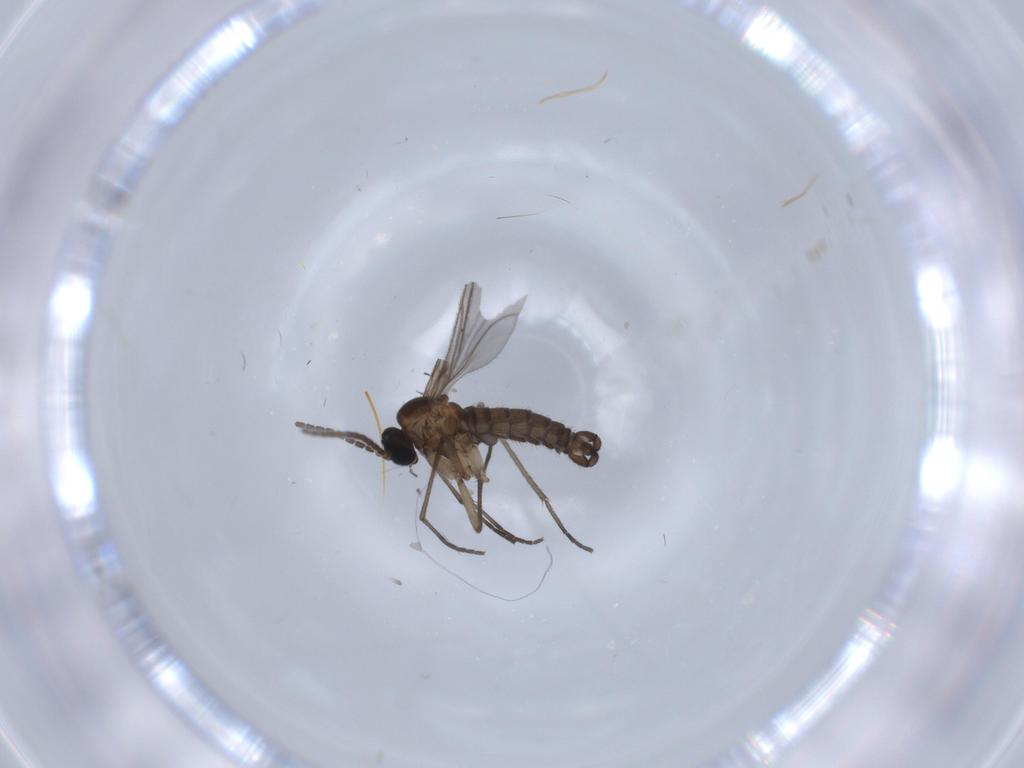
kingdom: Animalia
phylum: Arthropoda
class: Insecta
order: Diptera
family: Sciaridae
